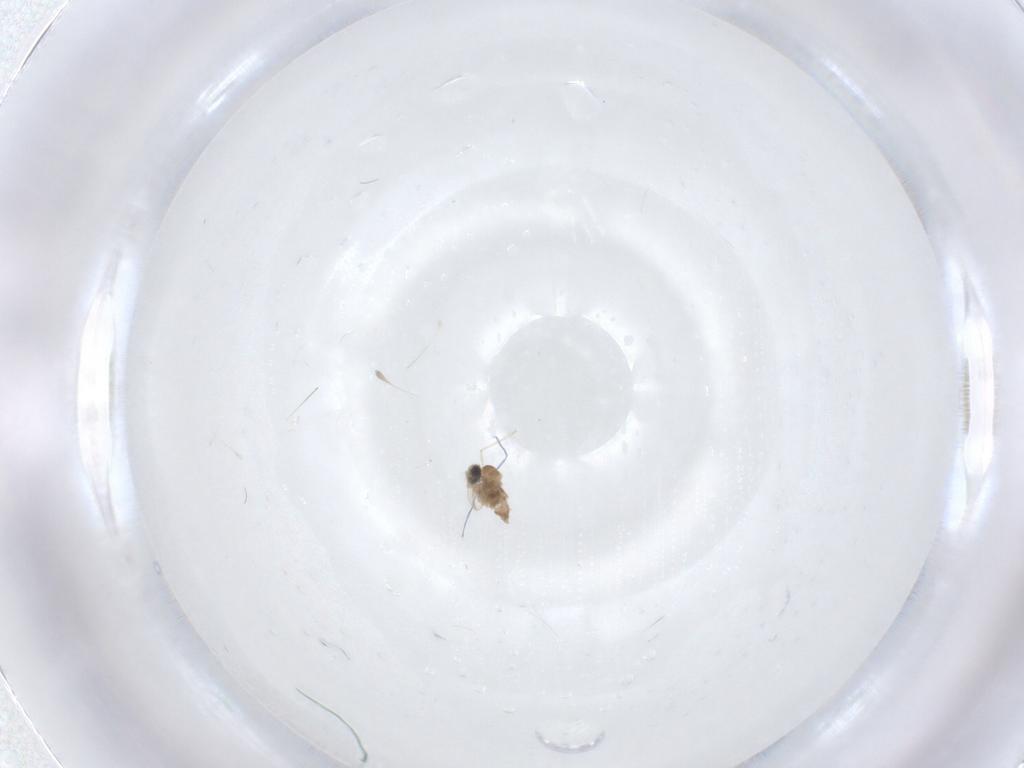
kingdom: Animalia
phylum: Arthropoda
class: Insecta
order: Diptera
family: Cecidomyiidae
